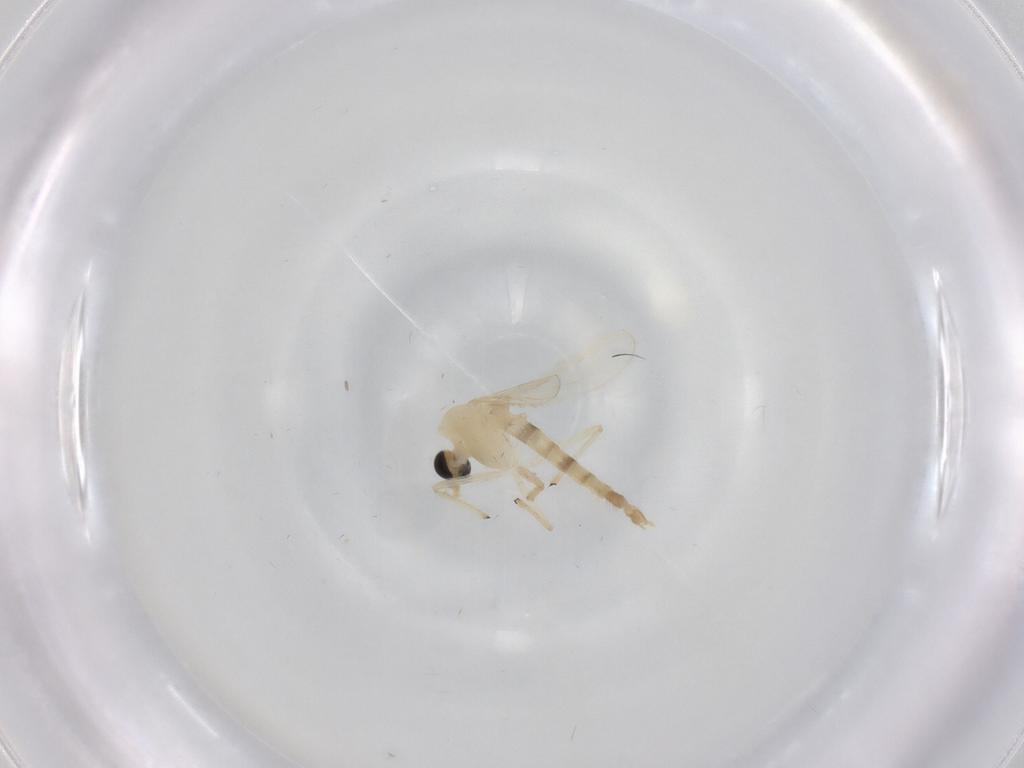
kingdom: Animalia
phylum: Arthropoda
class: Insecta
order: Diptera
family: Chironomidae
